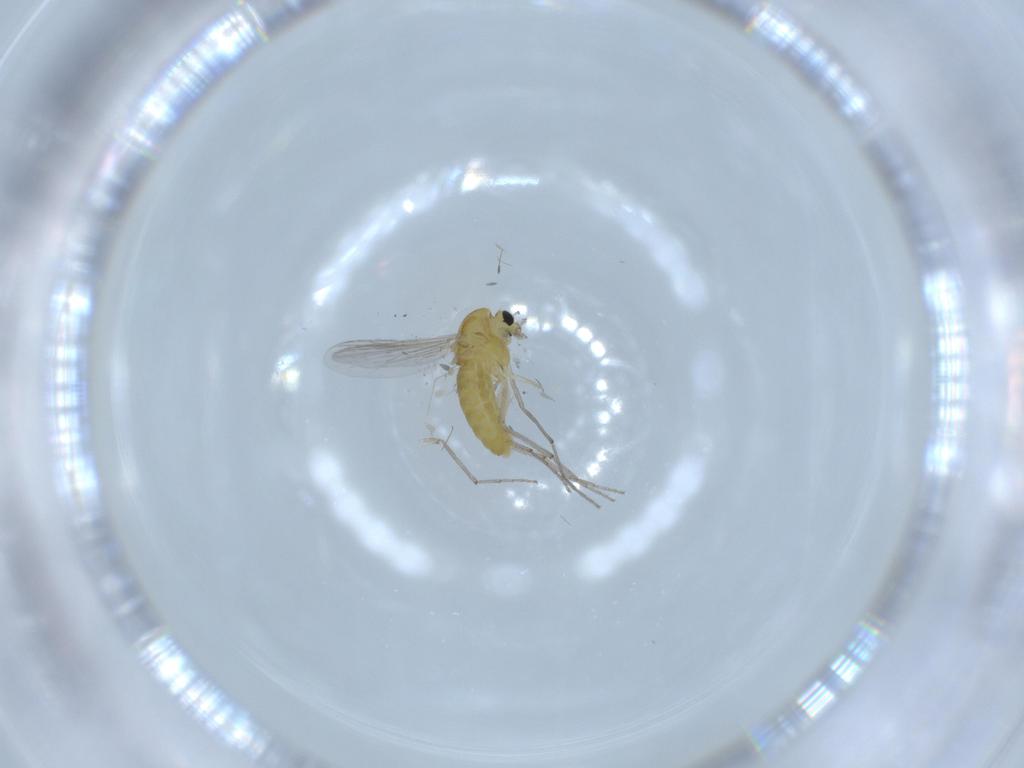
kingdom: Animalia
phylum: Arthropoda
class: Insecta
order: Diptera
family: Chironomidae
